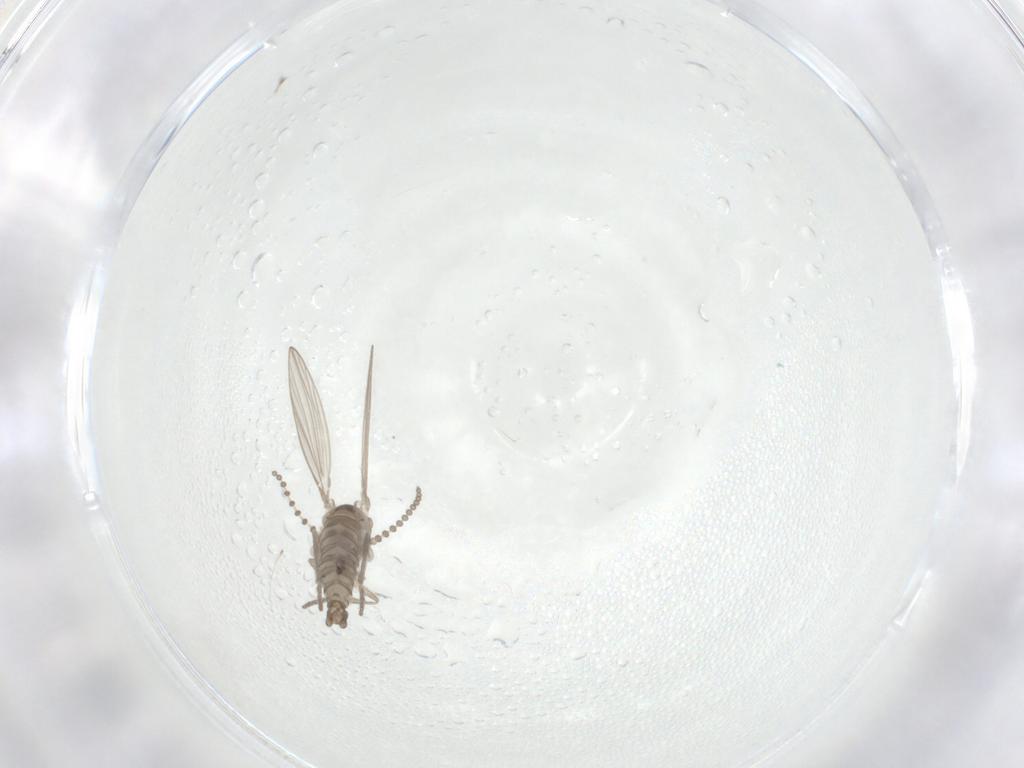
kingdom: Animalia
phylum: Arthropoda
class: Insecta
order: Diptera
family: Psychodidae
